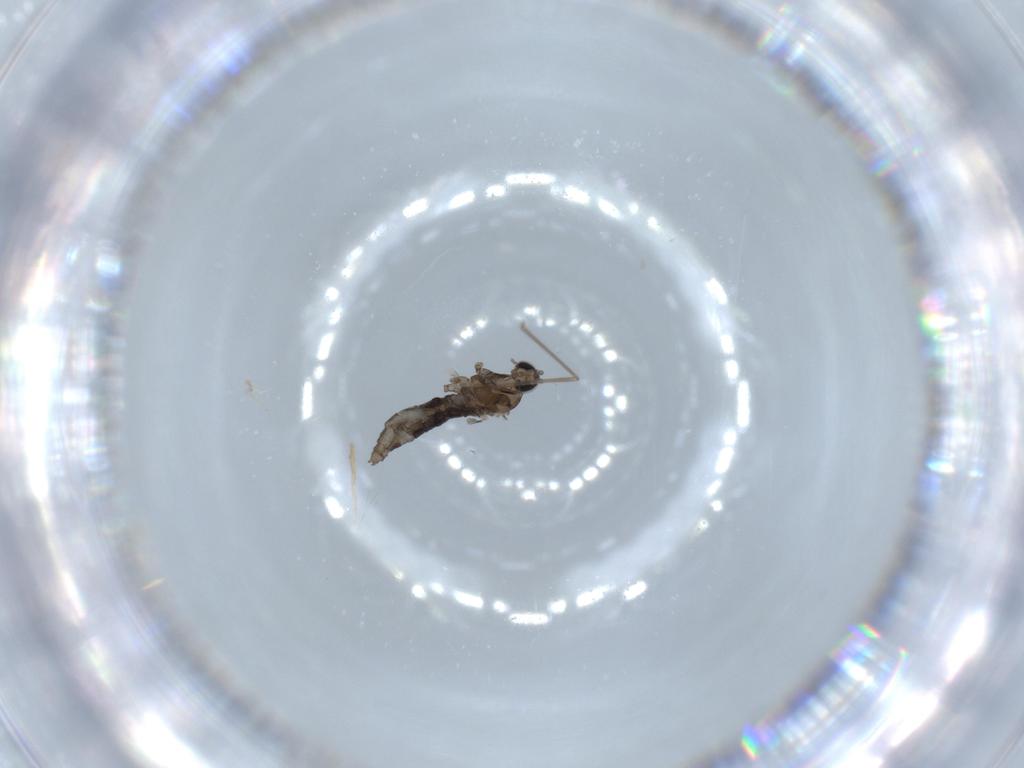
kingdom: Animalia
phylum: Arthropoda
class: Insecta
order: Diptera
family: Cecidomyiidae
